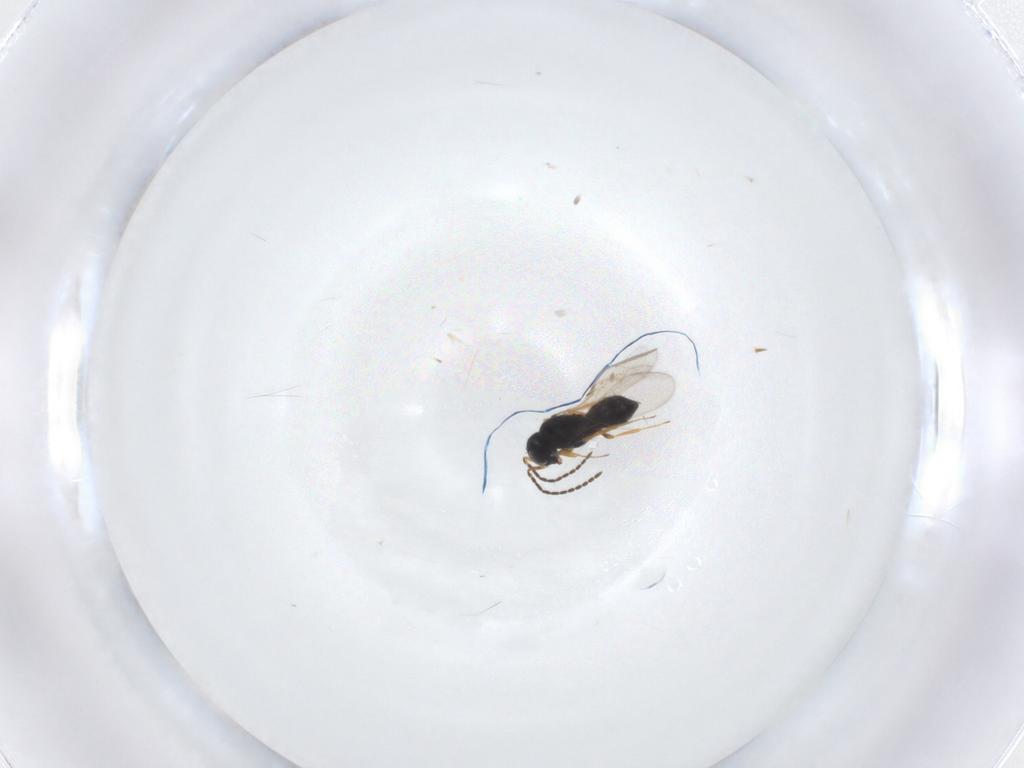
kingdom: Animalia
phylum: Arthropoda
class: Insecta
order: Hymenoptera
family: Scelionidae
